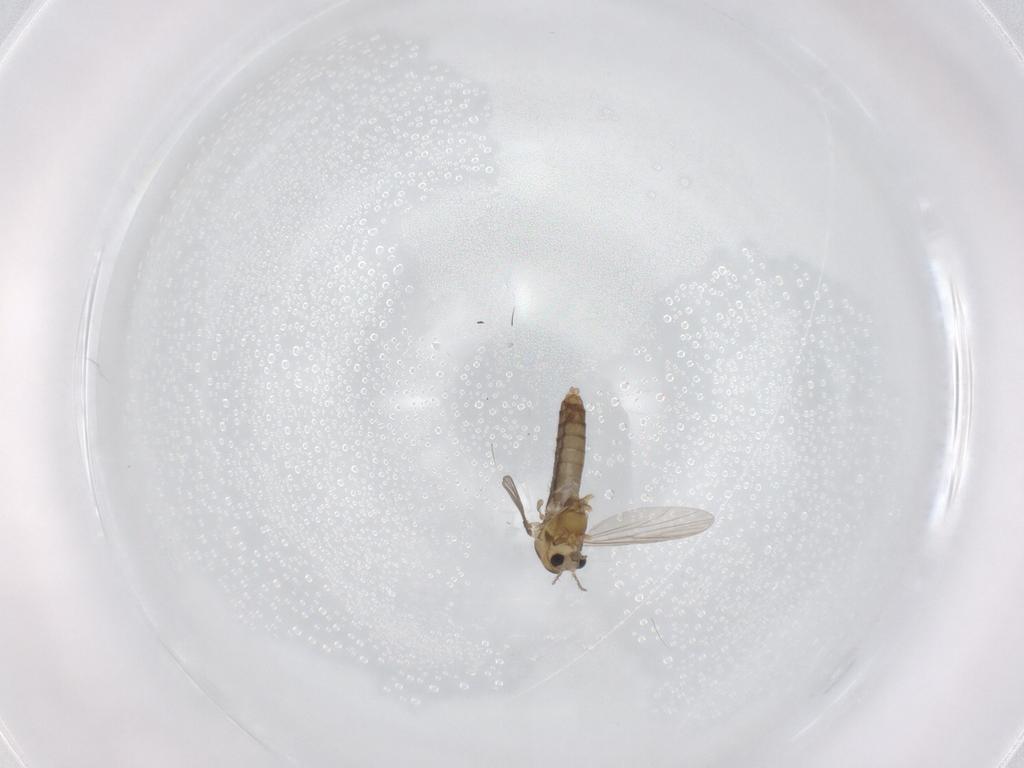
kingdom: Animalia
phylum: Arthropoda
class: Insecta
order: Diptera
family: Chironomidae
